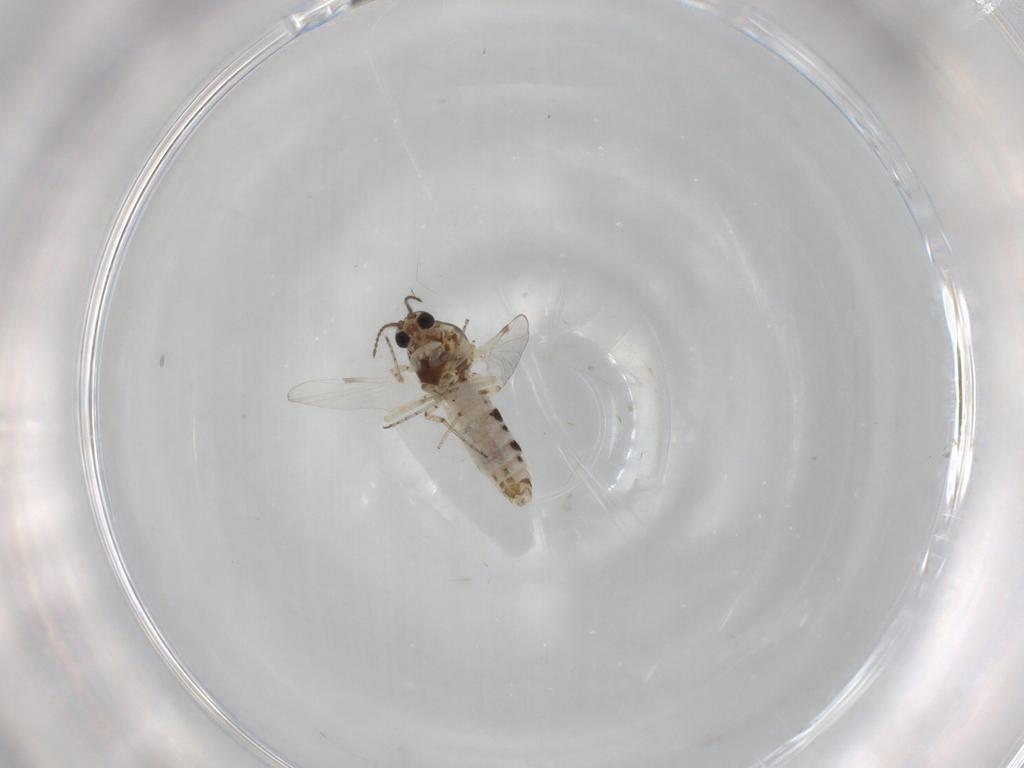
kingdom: Animalia
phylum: Arthropoda
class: Insecta
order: Diptera
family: Ceratopogonidae
